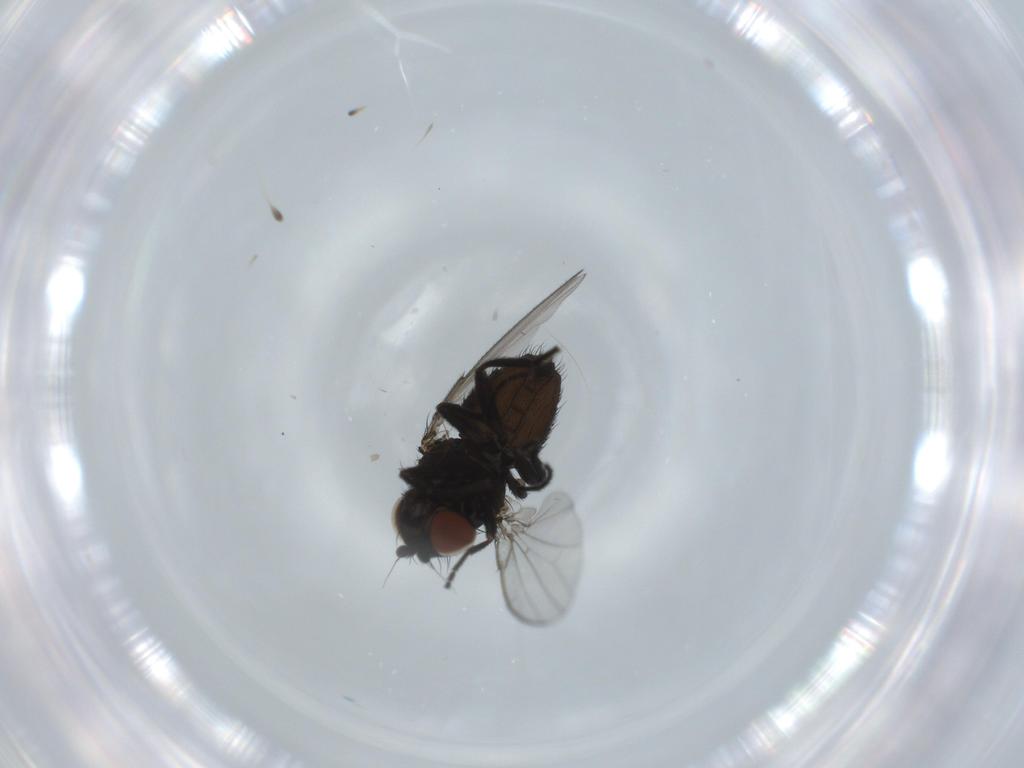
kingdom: Animalia
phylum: Arthropoda
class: Insecta
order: Diptera
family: Milichiidae
